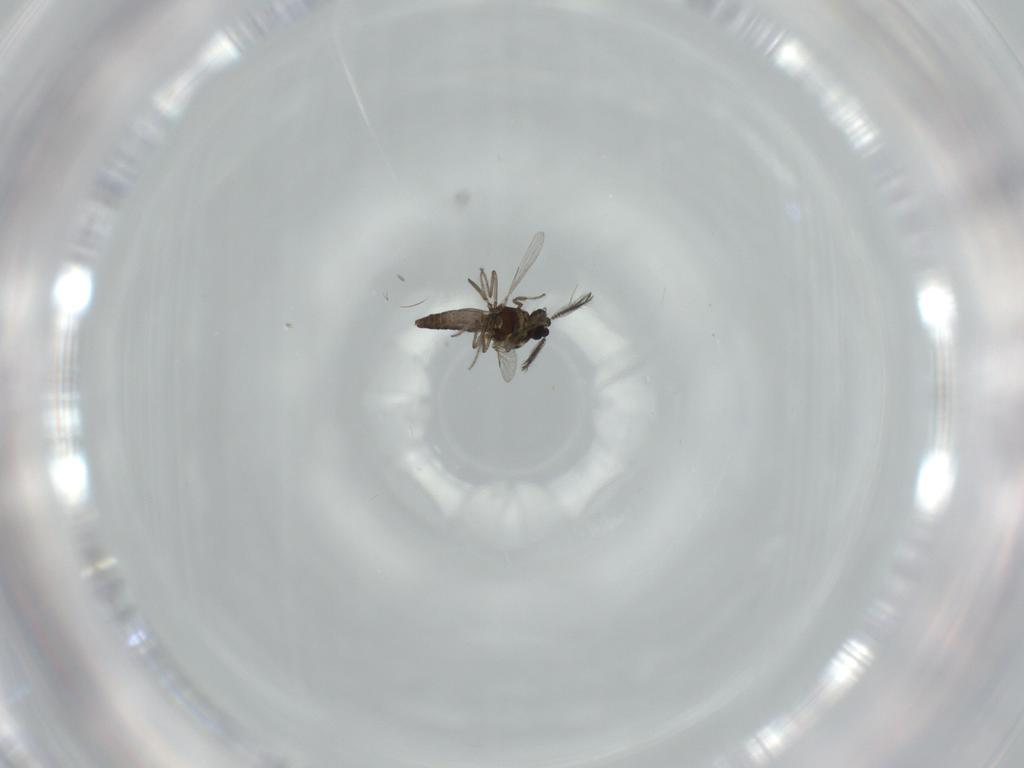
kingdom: Animalia
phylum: Arthropoda
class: Insecta
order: Diptera
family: Ceratopogonidae
